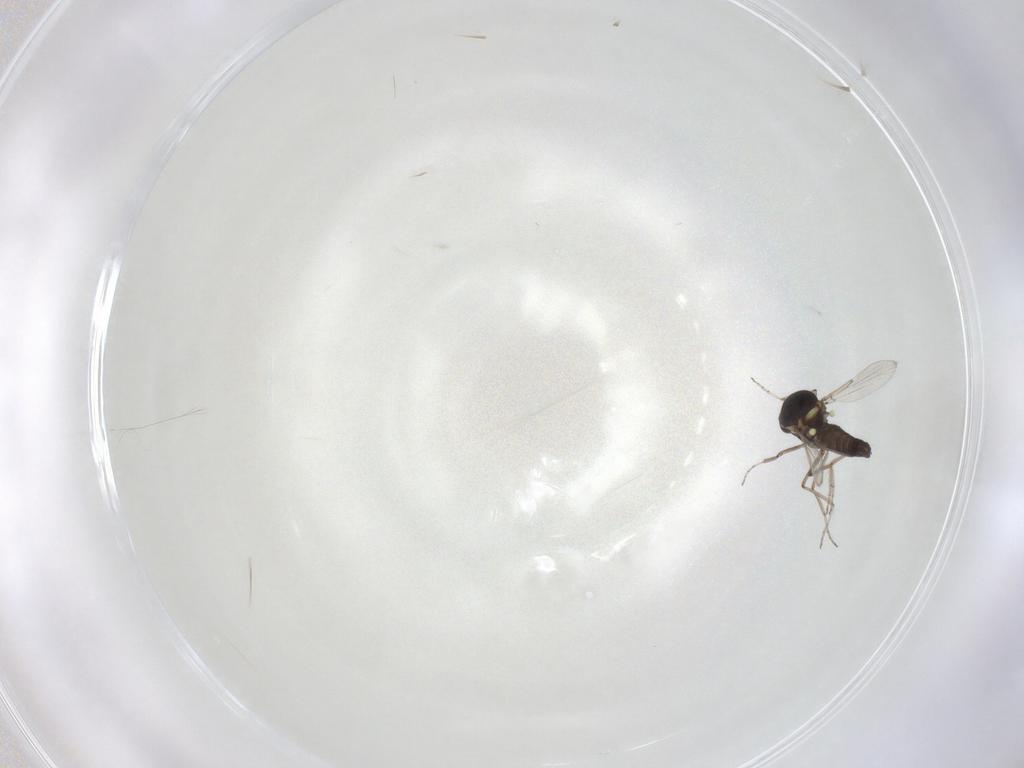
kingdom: Animalia
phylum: Arthropoda
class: Insecta
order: Diptera
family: Ceratopogonidae
